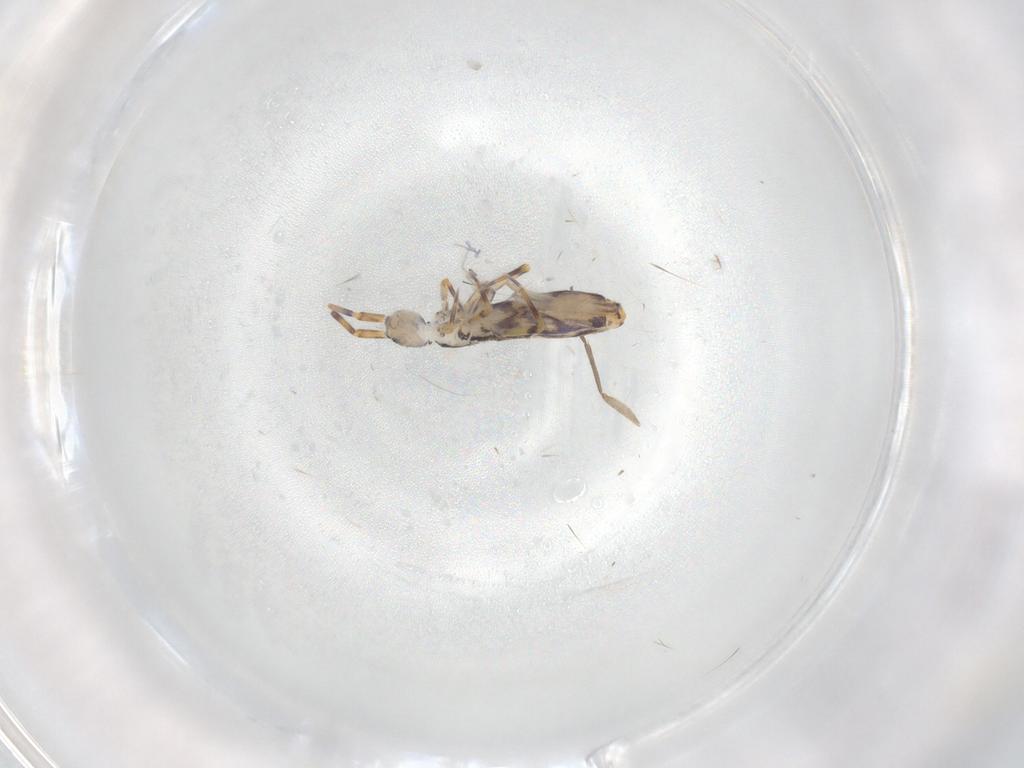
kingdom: Animalia
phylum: Arthropoda
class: Collembola
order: Entomobryomorpha
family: Entomobryidae
